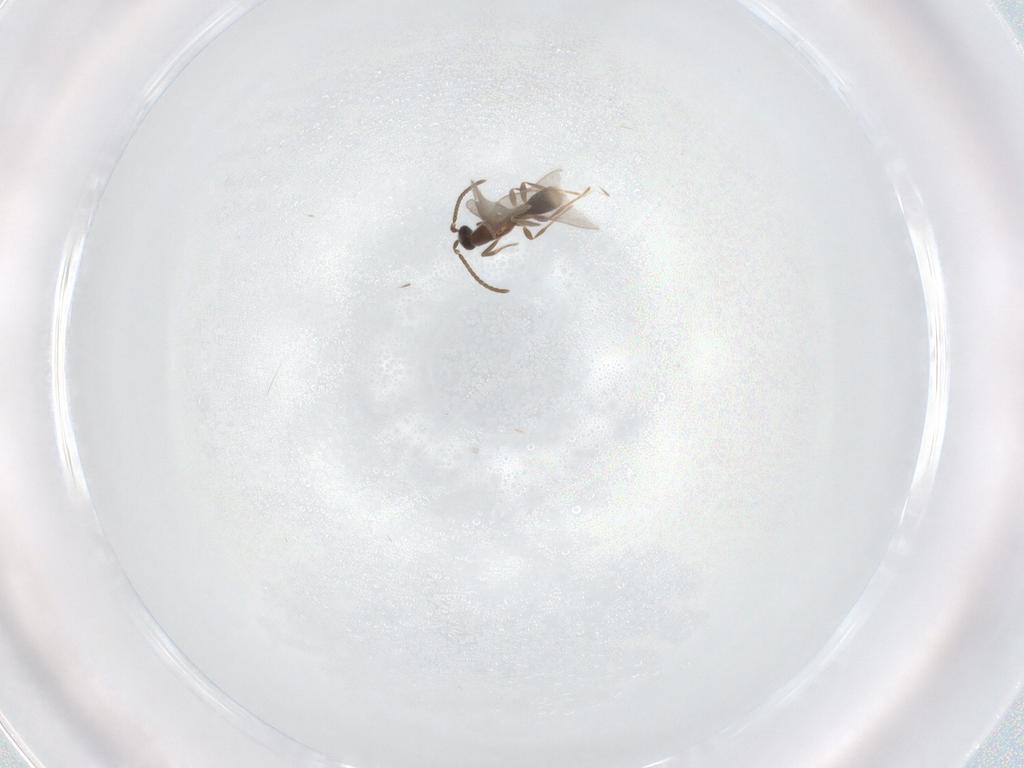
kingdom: Animalia
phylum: Arthropoda
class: Insecta
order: Hymenoptera
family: Formicidae
